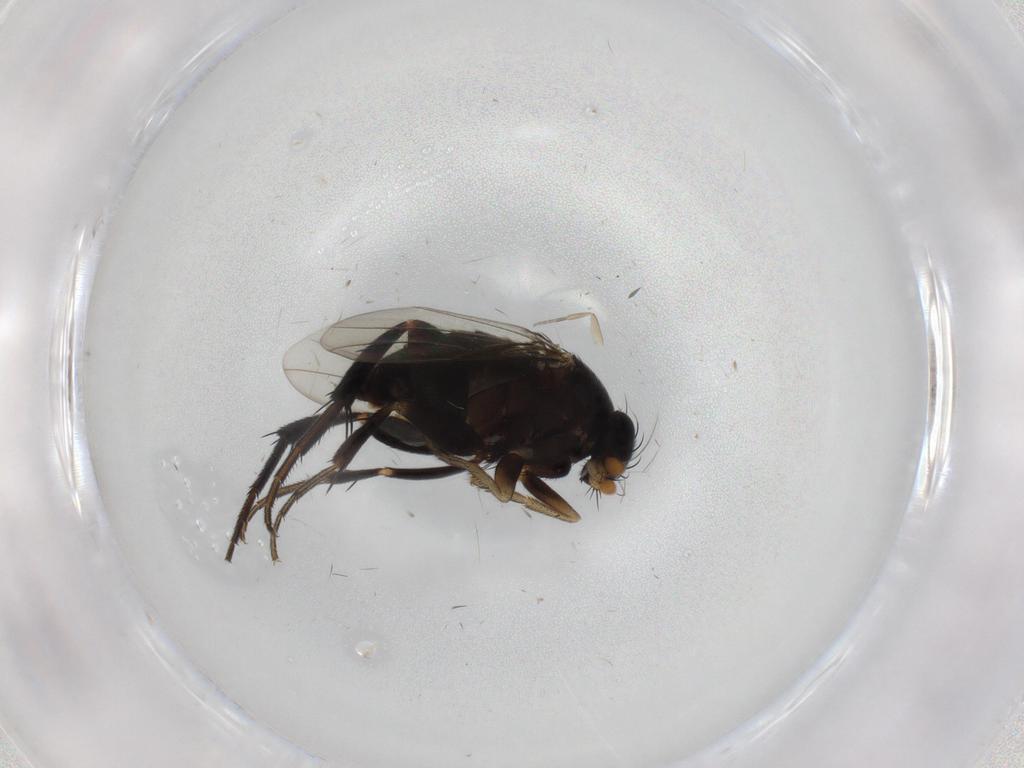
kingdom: Animalia
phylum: Arthropoda
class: Insecta
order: Diptera
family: Phoridae
